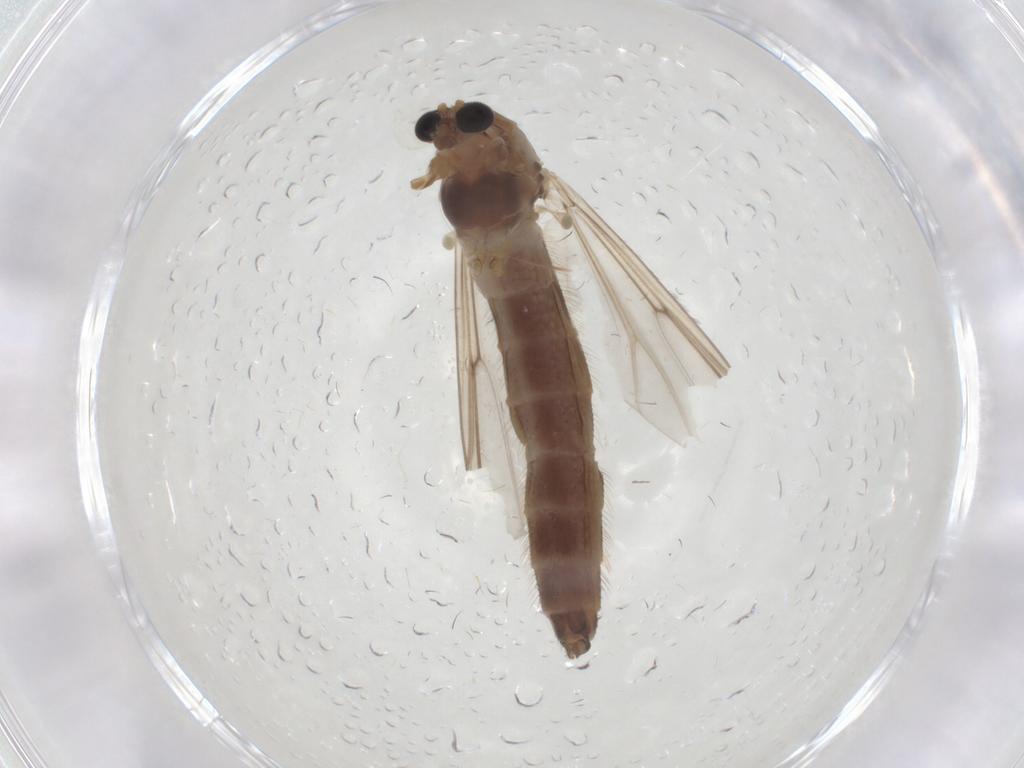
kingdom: Animalia
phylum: Arthropoda
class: Insecta
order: Diptera
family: Chironomidae
